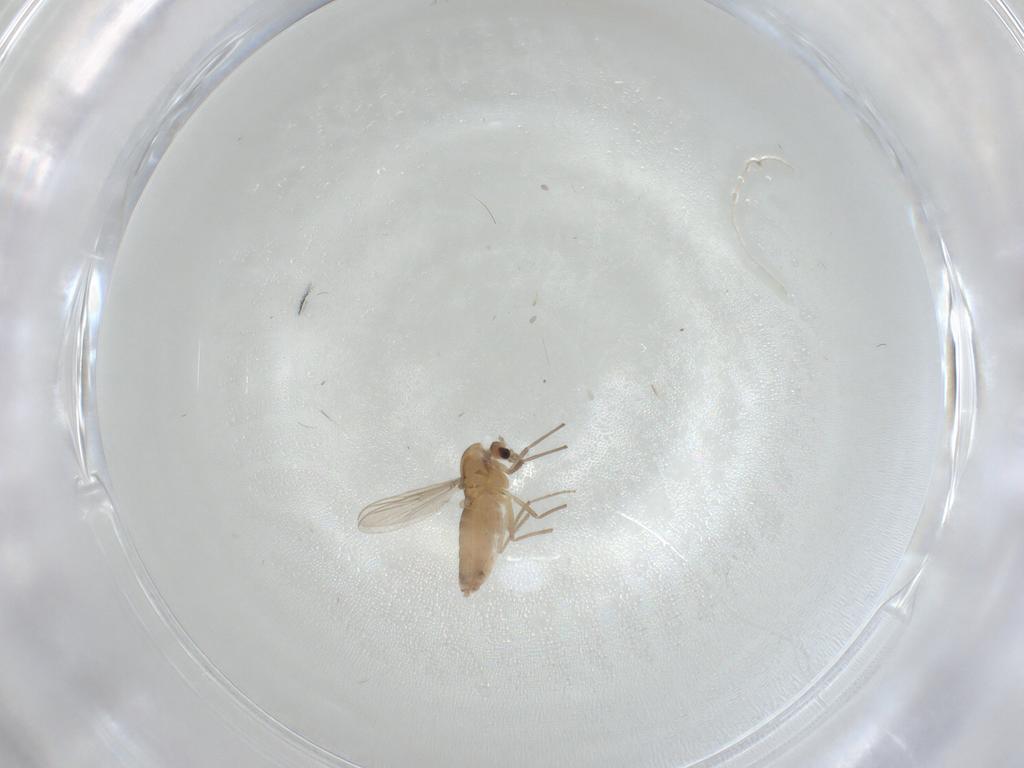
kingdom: Animalia
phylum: Arthropoda
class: Insecta
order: Diptera
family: Chironomidae
